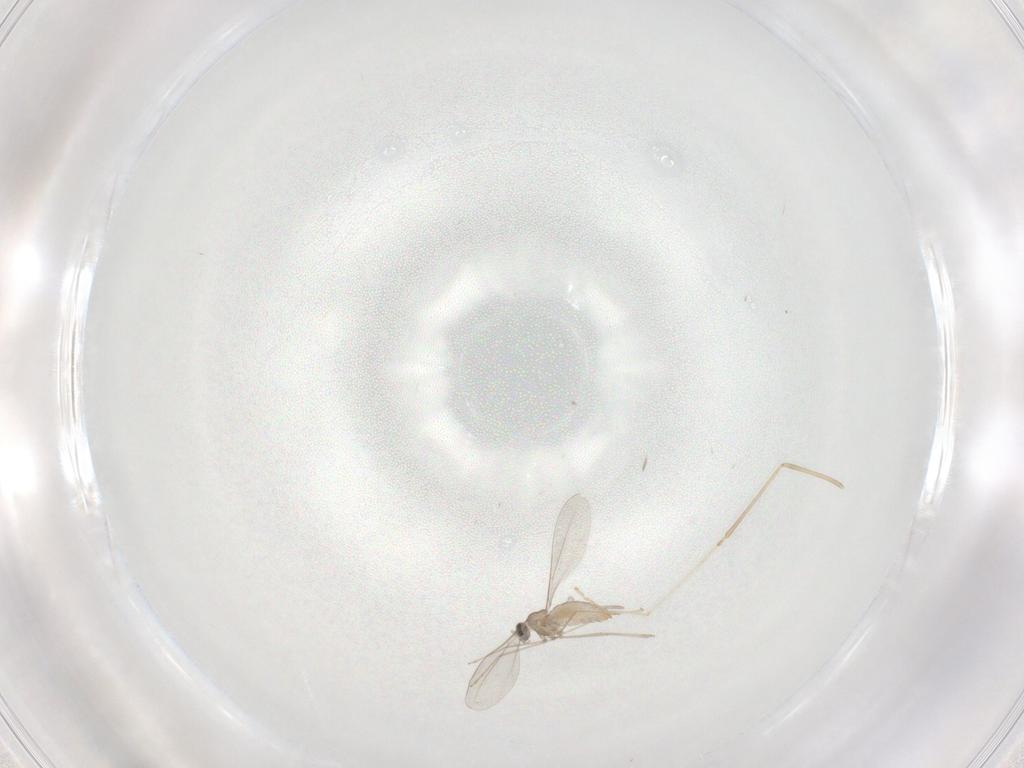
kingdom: Animalia
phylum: Arthropoda
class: Insecta
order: Diptera
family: Cecidomyiidae
